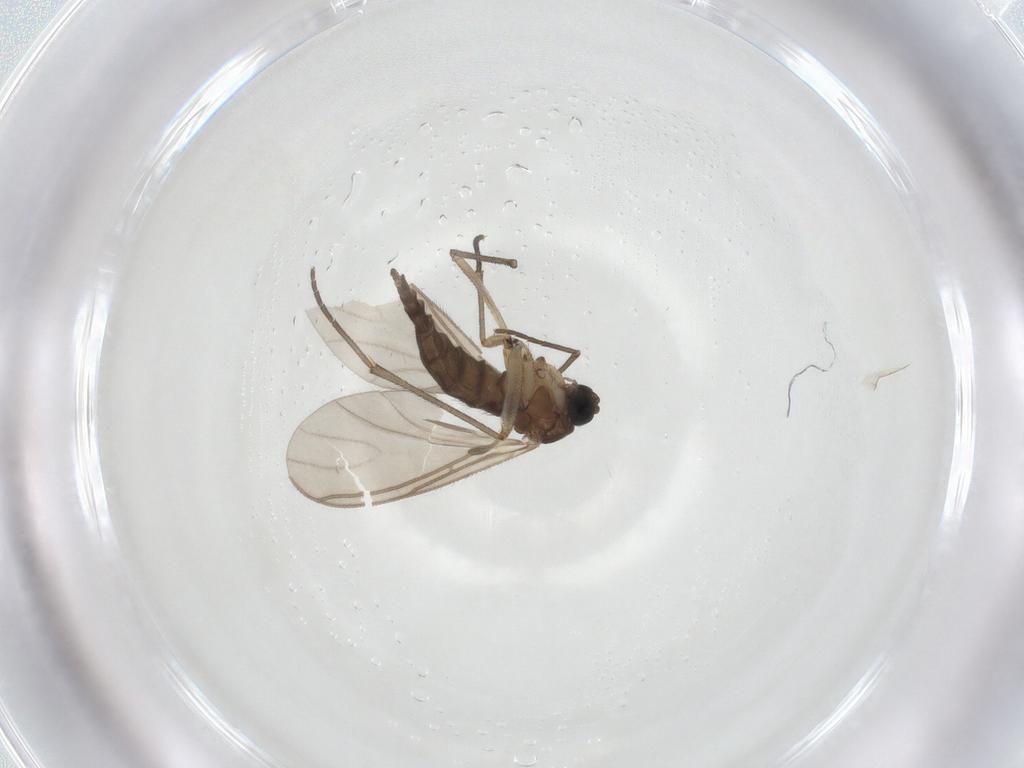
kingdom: Animalia
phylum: Arthropoda
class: Insecta
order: Diptera
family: Sciaridae
